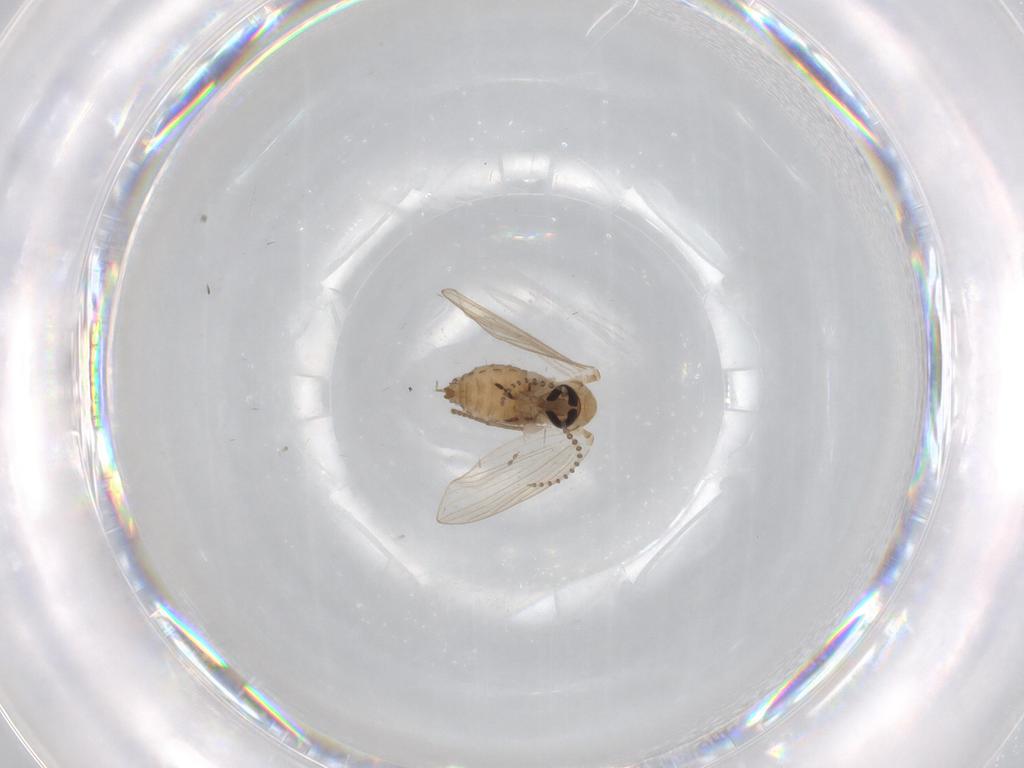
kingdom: Animalia
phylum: Arthropoda
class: Insecta
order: Diptera
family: Psychodidae
